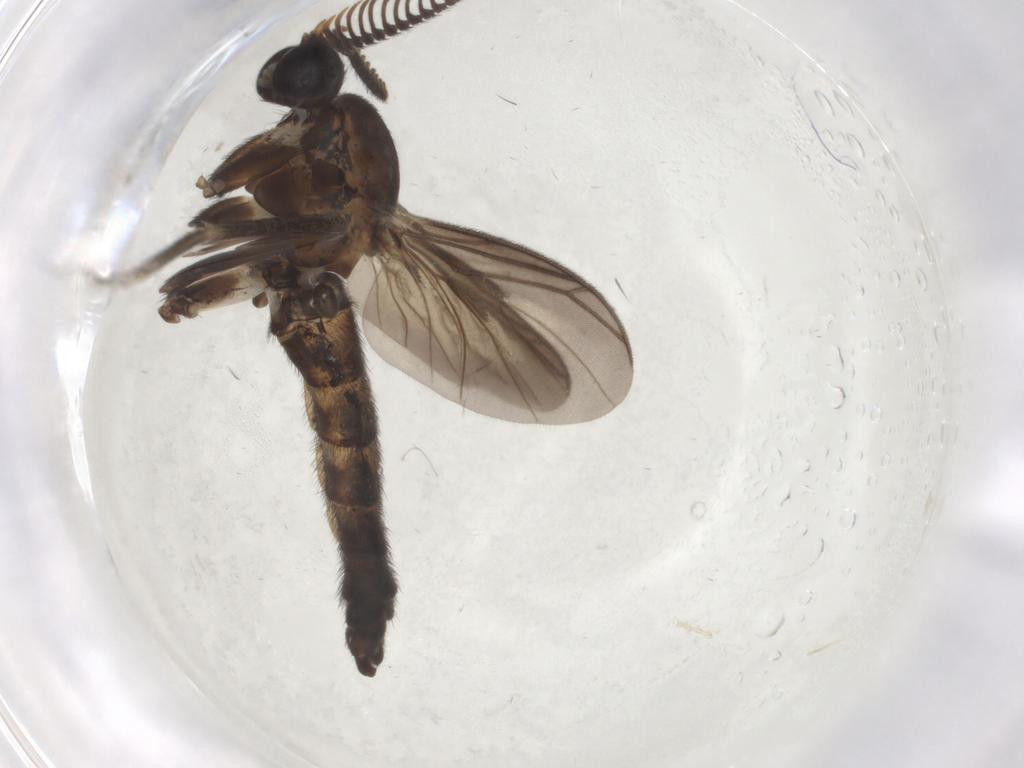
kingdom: Animalia
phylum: Arthropoda
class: Insecta
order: Diptera
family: Keroplatidae
